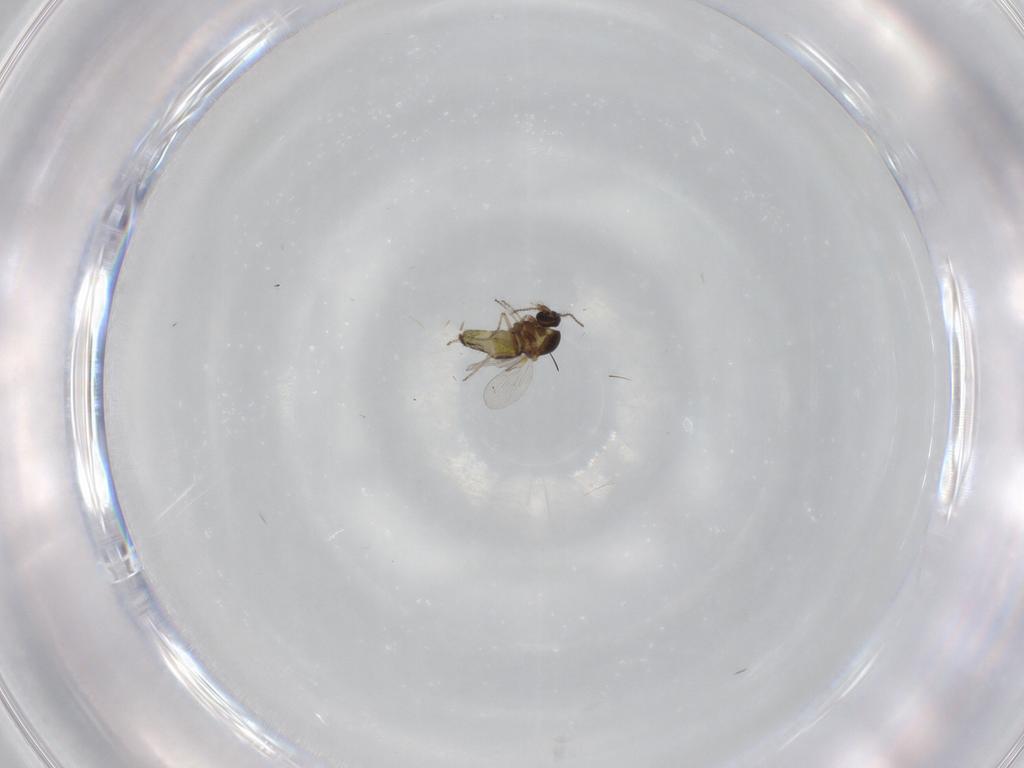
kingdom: Animalia
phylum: Arthropoda
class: Insecta
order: Diptera
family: Ceratopogonidae
